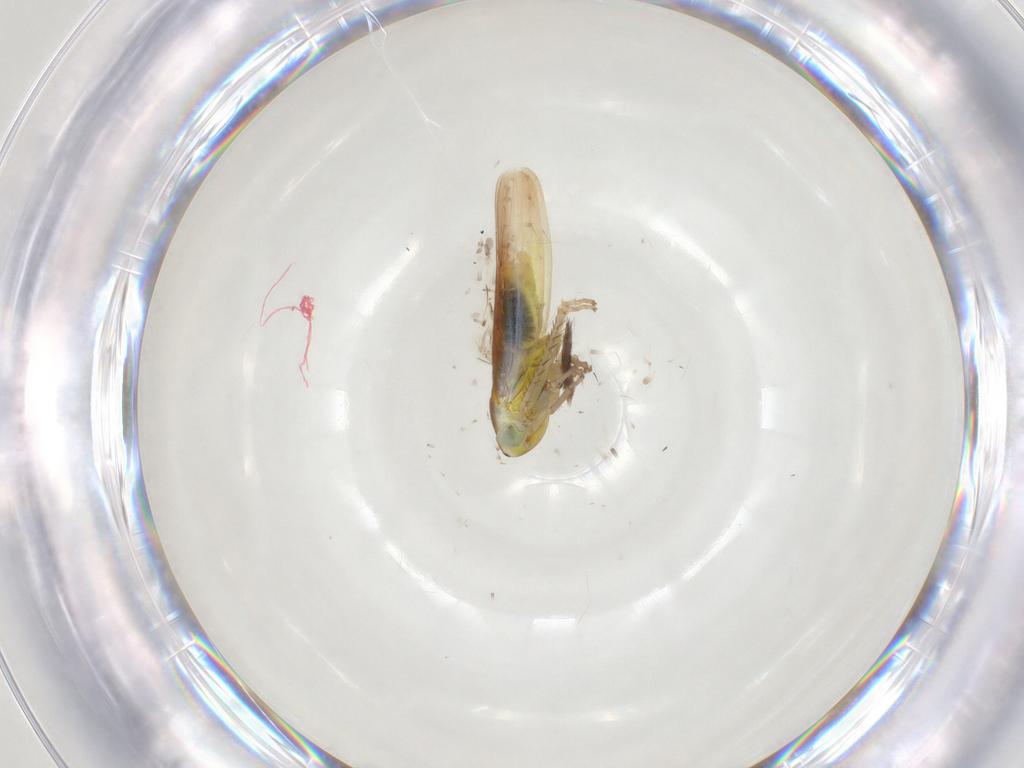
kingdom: Animalia
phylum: Arthropoda
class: Insecta
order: Hemiptera
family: Cicadellidae
